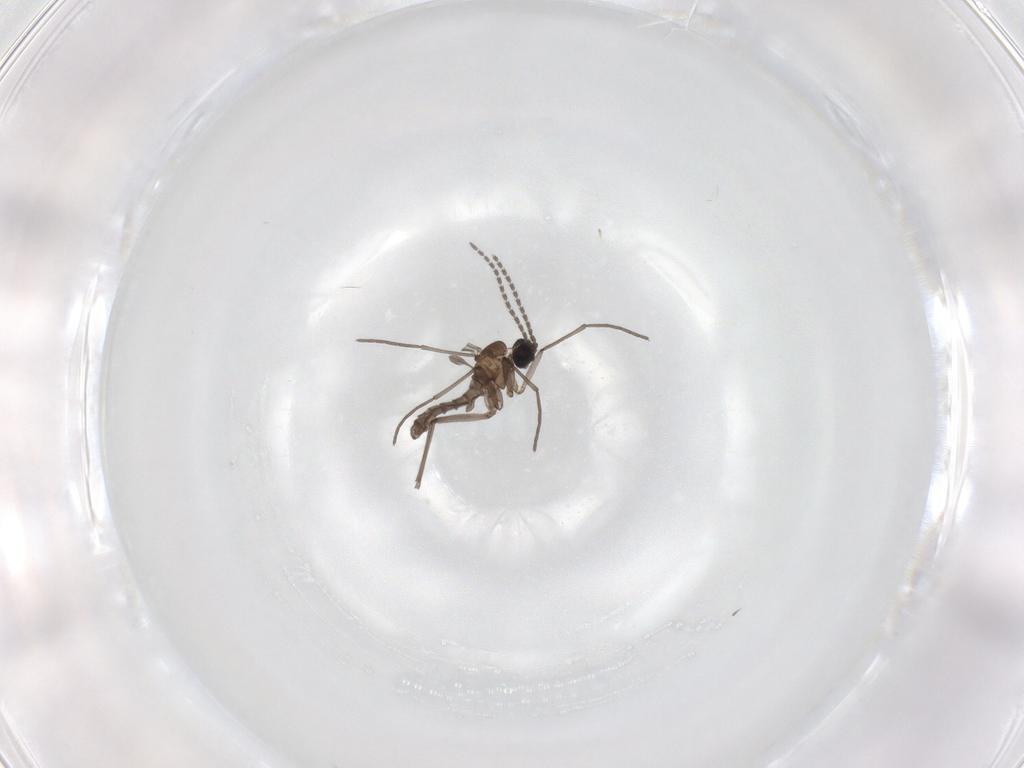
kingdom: Animalia
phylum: Arthropoda
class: Insecta
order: Diptera
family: Sciaridae
